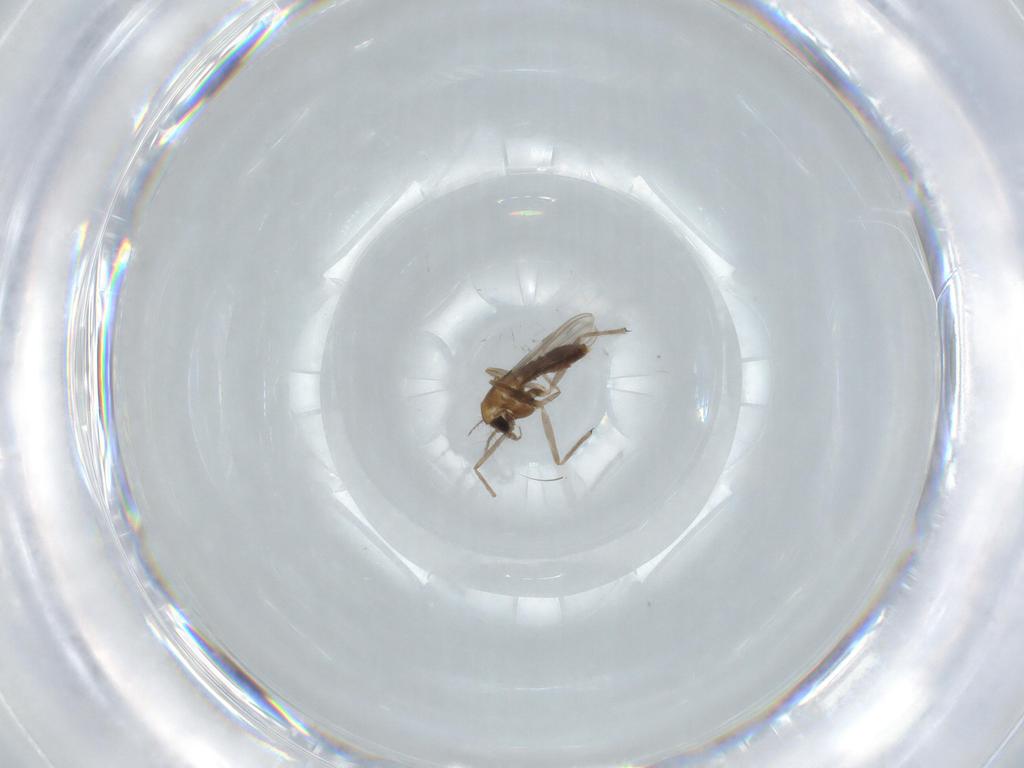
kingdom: Animalia
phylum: Arthropoda
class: Insecta
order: Diptera
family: Chironomidae
